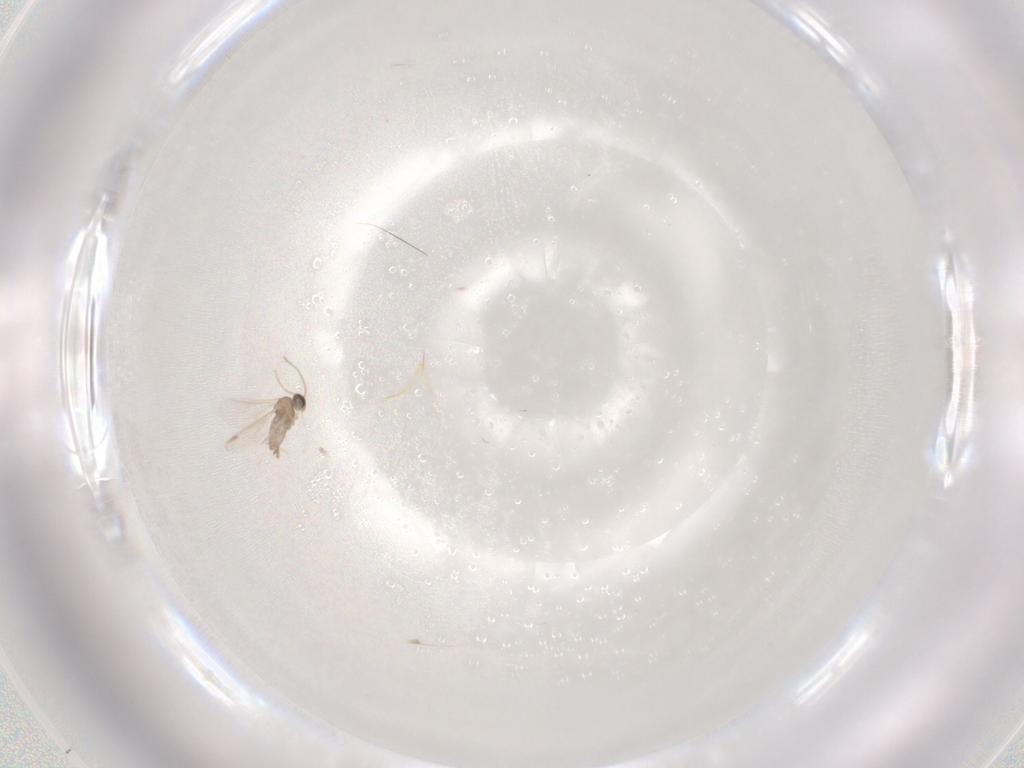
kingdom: Animalia
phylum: Arthropoda
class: Insecta
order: Diptera
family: Cecidomyiidae
